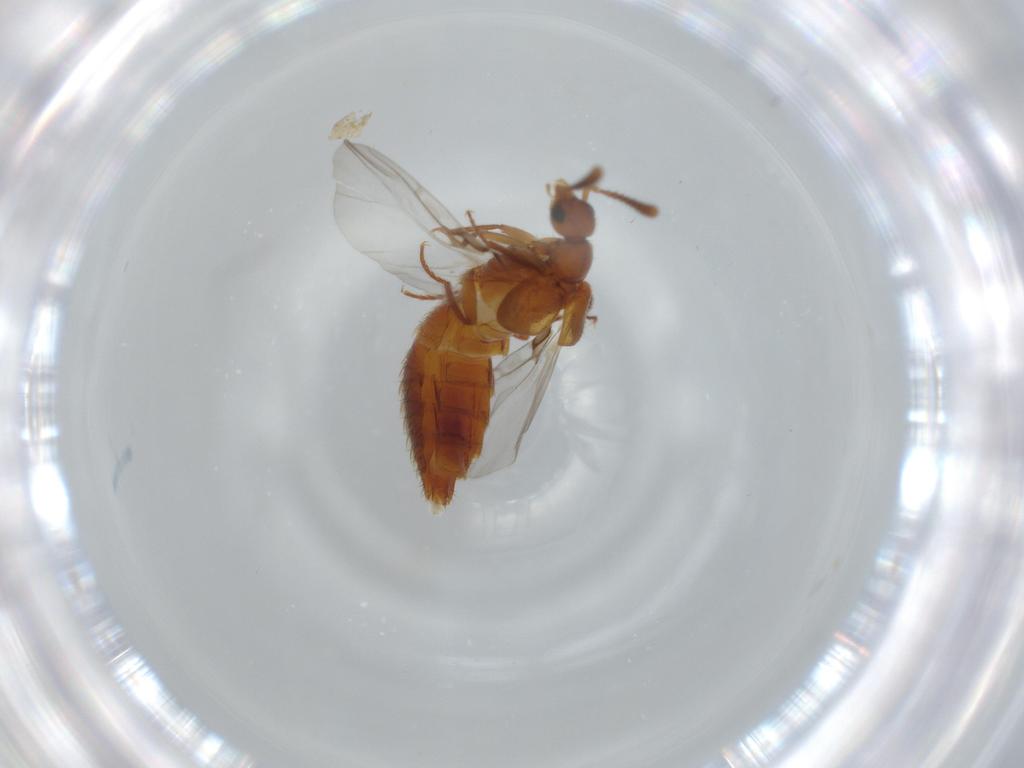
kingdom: Animalia
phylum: Arthropoda
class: Insecta
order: Coleoptera
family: Staphylinidae
